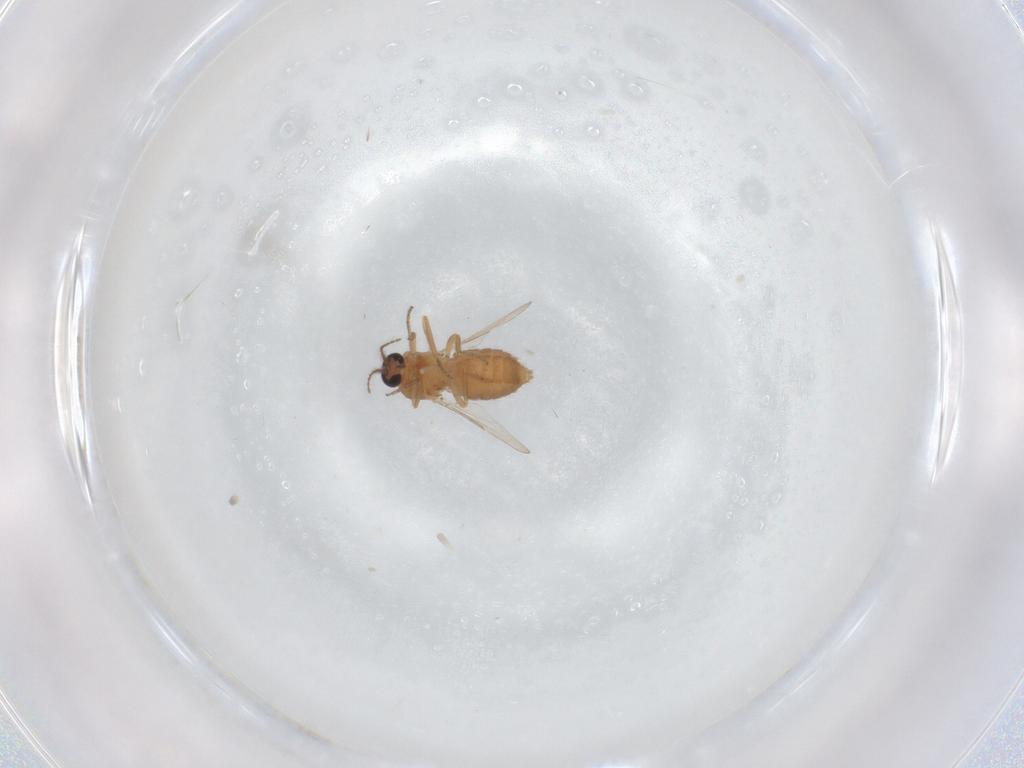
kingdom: Animalia
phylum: Arthropoda
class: Insecta
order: Diptera
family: Ceratopogonidae
